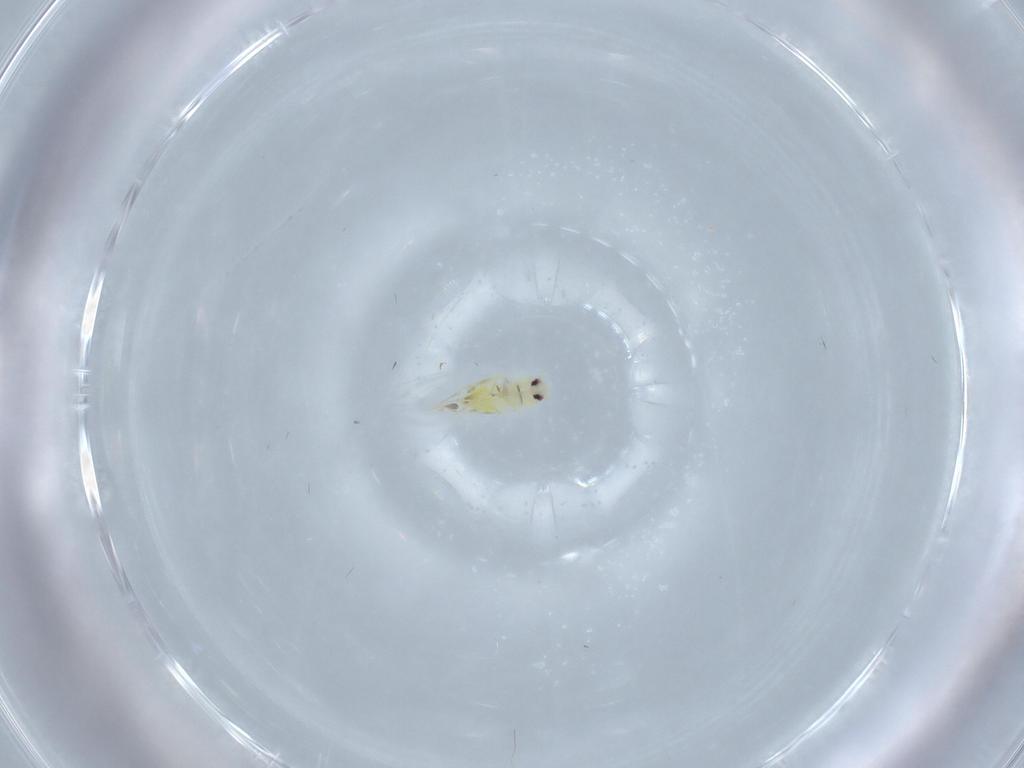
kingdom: Animalia
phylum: Arthropoda
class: Insecta
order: Hemiptera
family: Aleyrodidae
